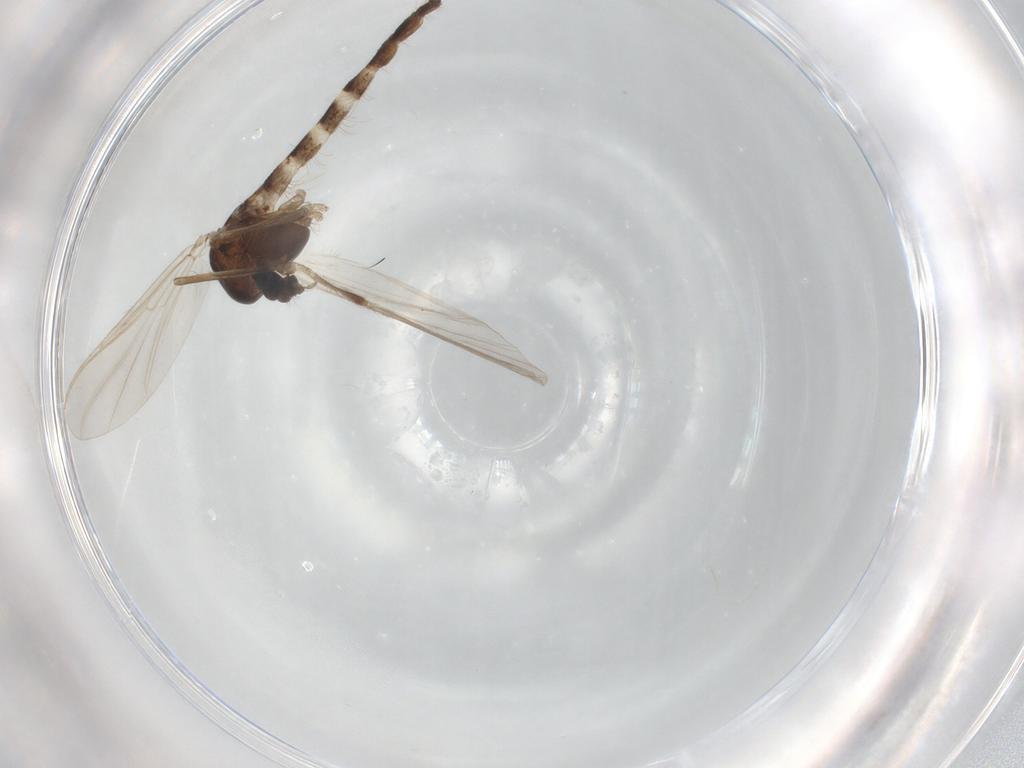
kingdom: Animalia
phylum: Arthropoda
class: Insecta
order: Diptera
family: Chironomidae
